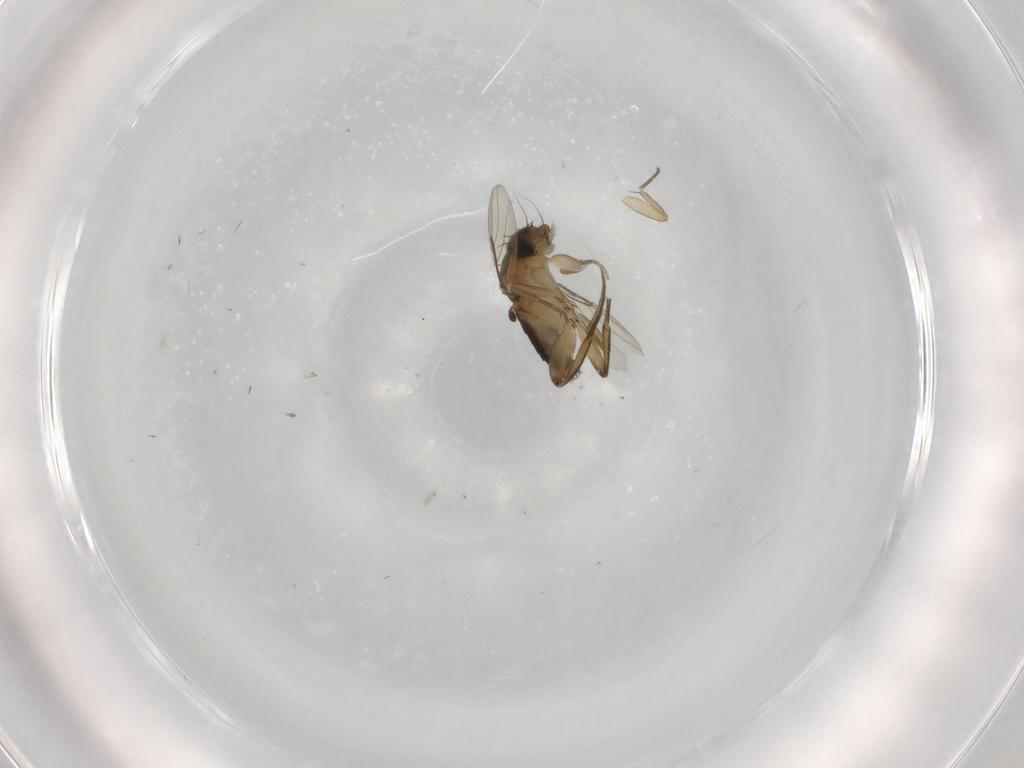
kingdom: Animalia
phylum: Arthropoda
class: Insecta
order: Diptera
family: Phoridae
